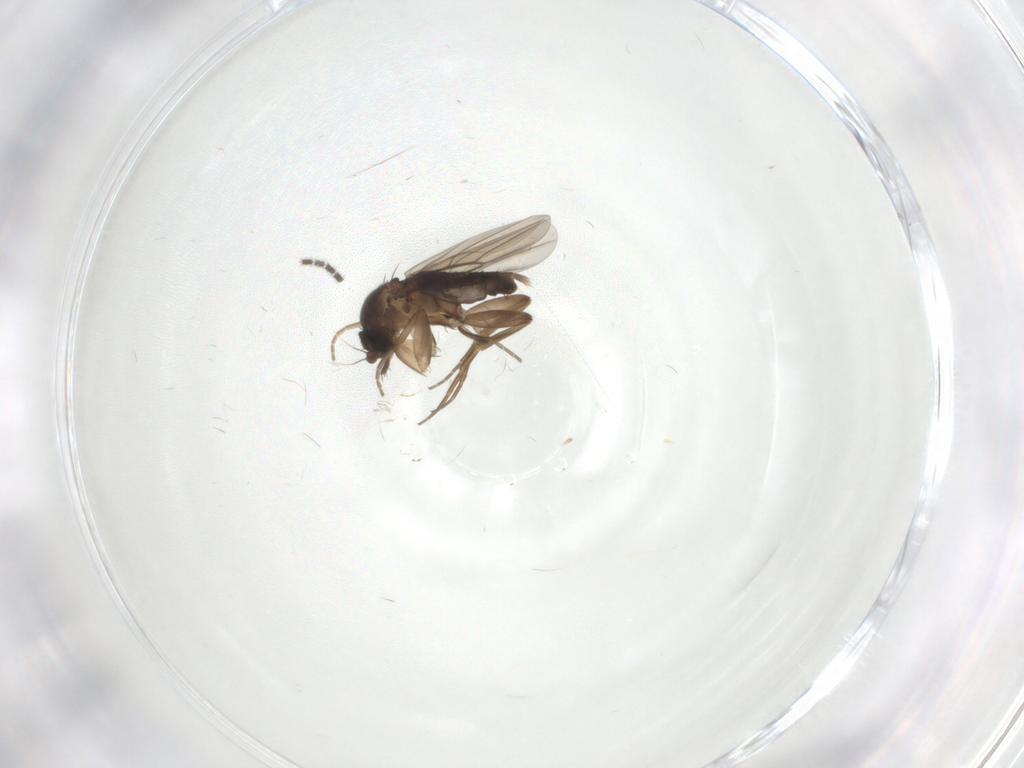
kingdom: Animalia
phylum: Arthropoda
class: Insecta
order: Diptera
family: Phoridae
